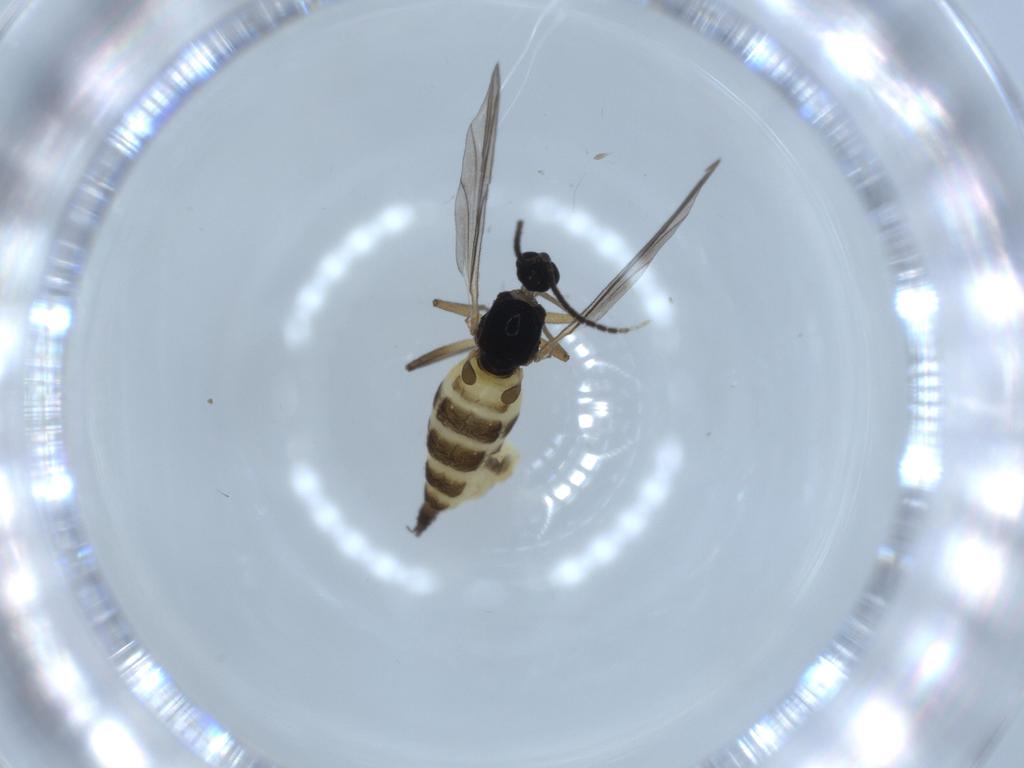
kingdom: Animalia
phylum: Arthropoda
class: Insecta
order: Diptera
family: Sciaridae
